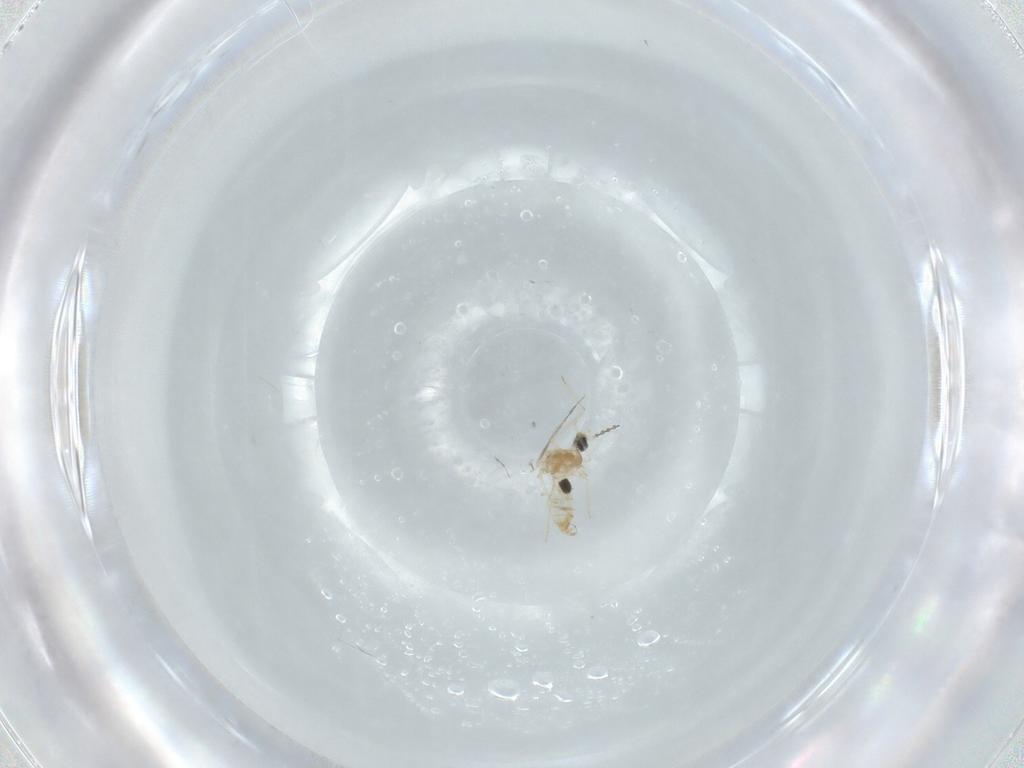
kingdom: Animalia
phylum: Arthropoda
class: Insecta
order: Diptera
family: Cecidomyiidae
